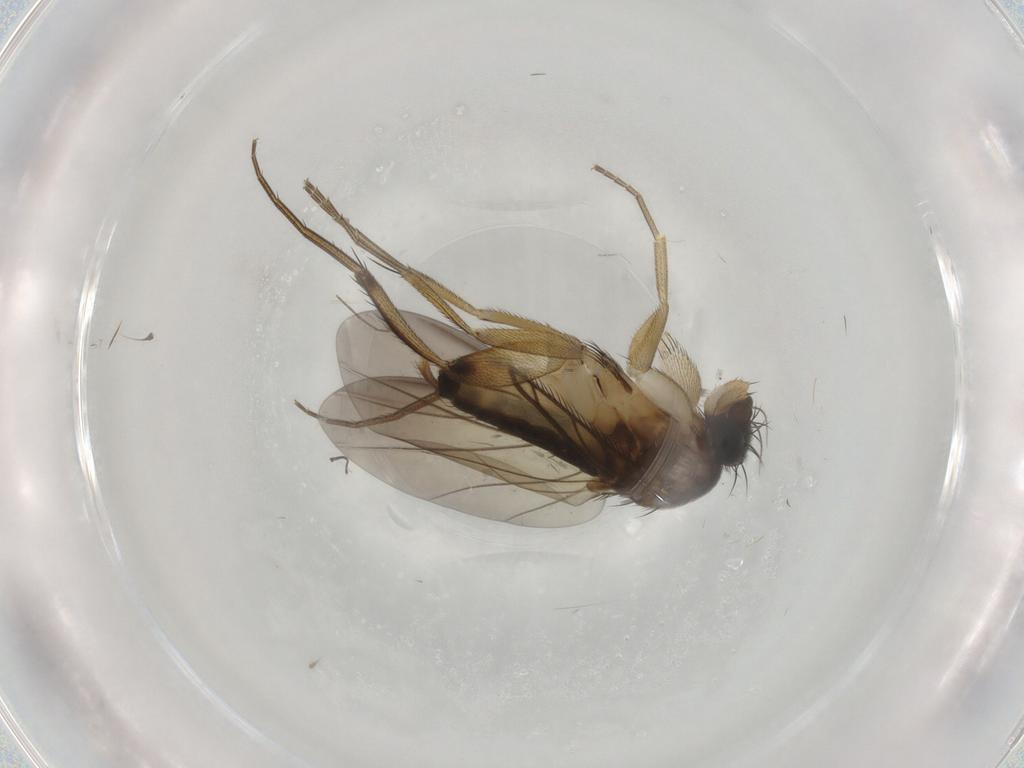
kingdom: Animalia
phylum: Arthropoda
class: Insecta
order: Diptera
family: Phoridae
